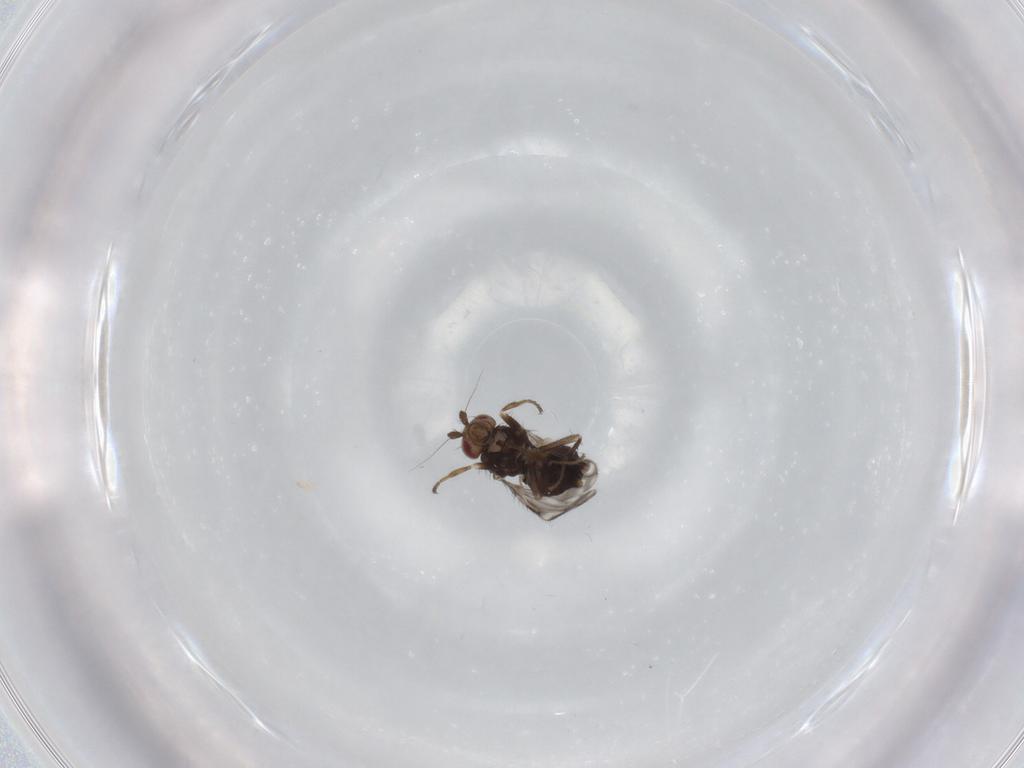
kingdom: Animalia
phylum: Arthropoda
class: Insecta
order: Diptera
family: Sphaeroceridae
